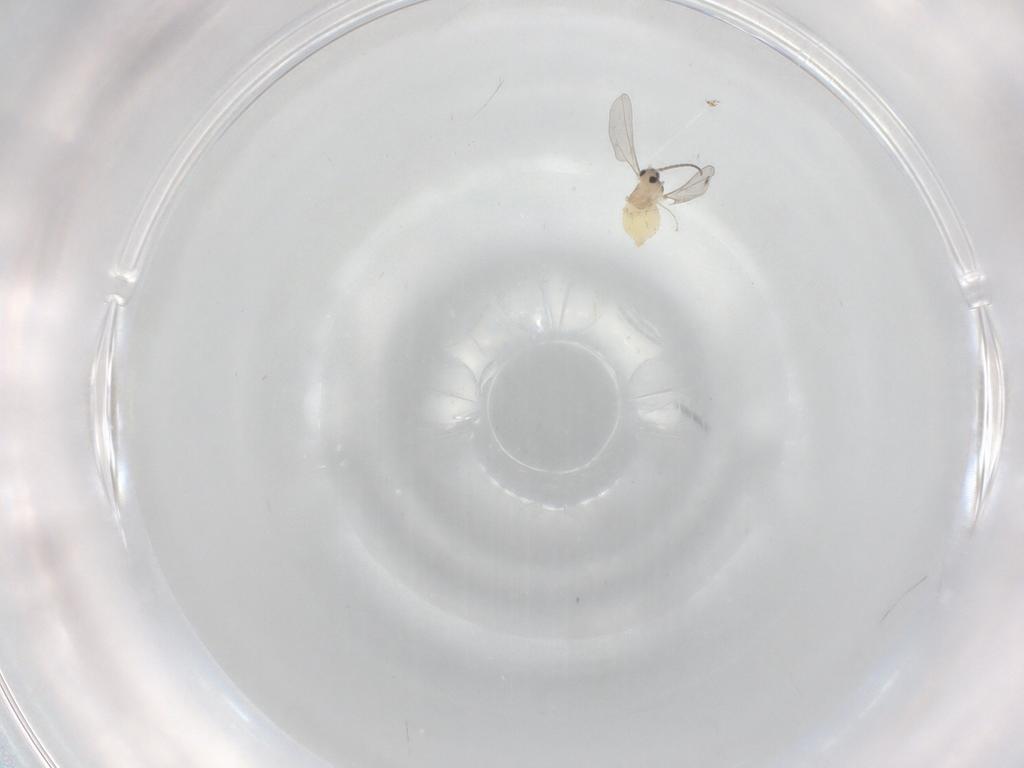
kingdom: Animalia
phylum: Arthropoda
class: Insecta
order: Diptera
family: Cecidomyiidae
